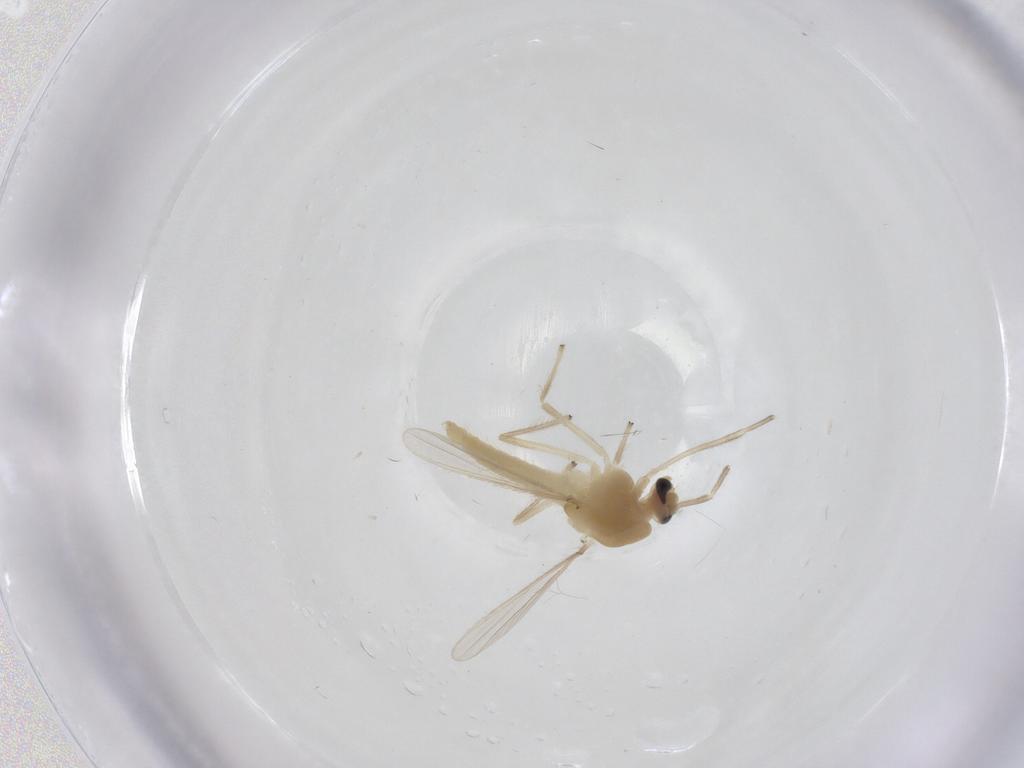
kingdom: Animalia
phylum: Arthropoda
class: Insecta
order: Diptera
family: Chironomidae
